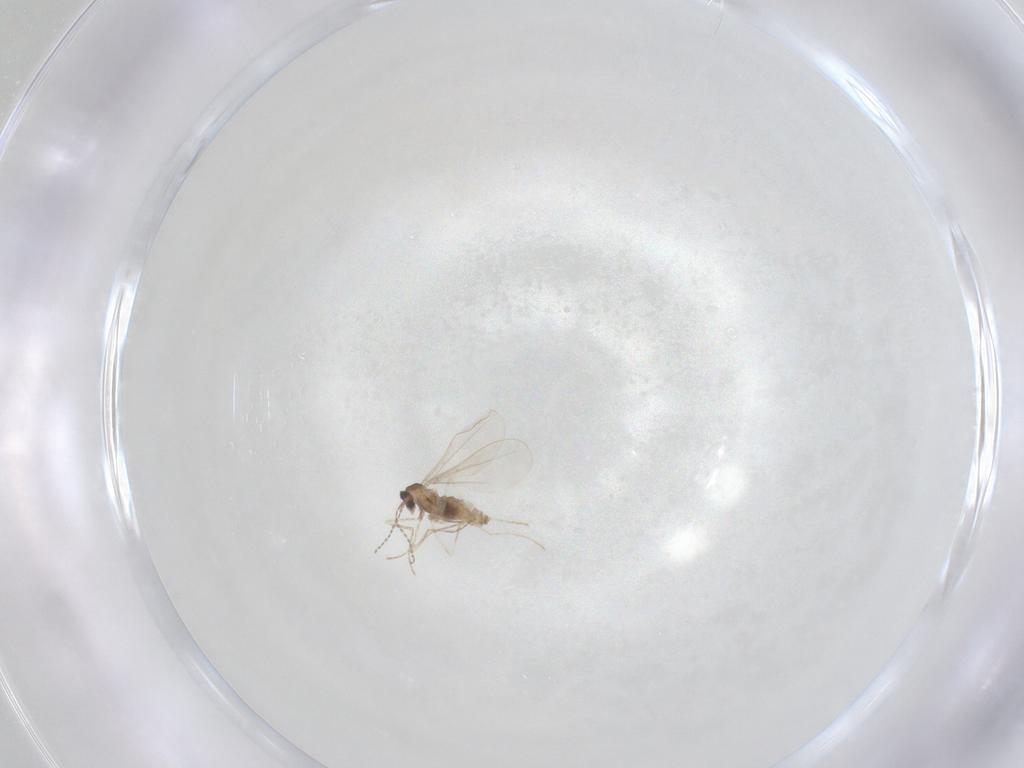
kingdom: Animalia
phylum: Arthropoda
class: Insecta
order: Diptera
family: Cecidomyiidae
